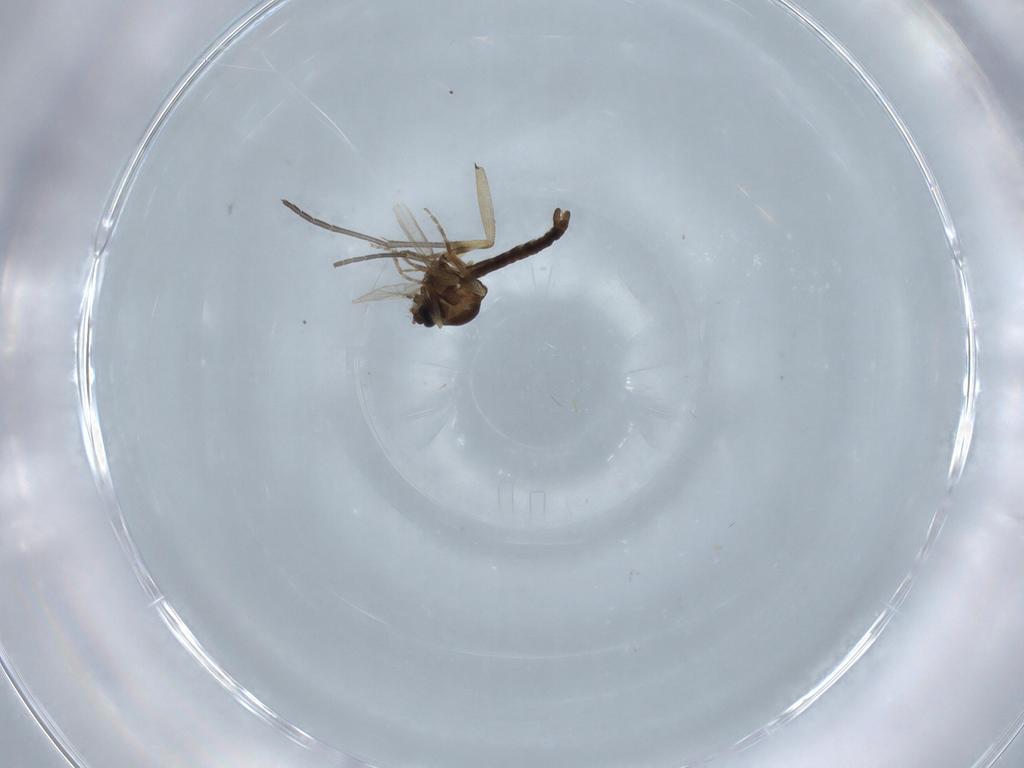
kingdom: Animalia
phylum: Arthropoda
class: Insecta
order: Diptera
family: Ceratopogonidae
